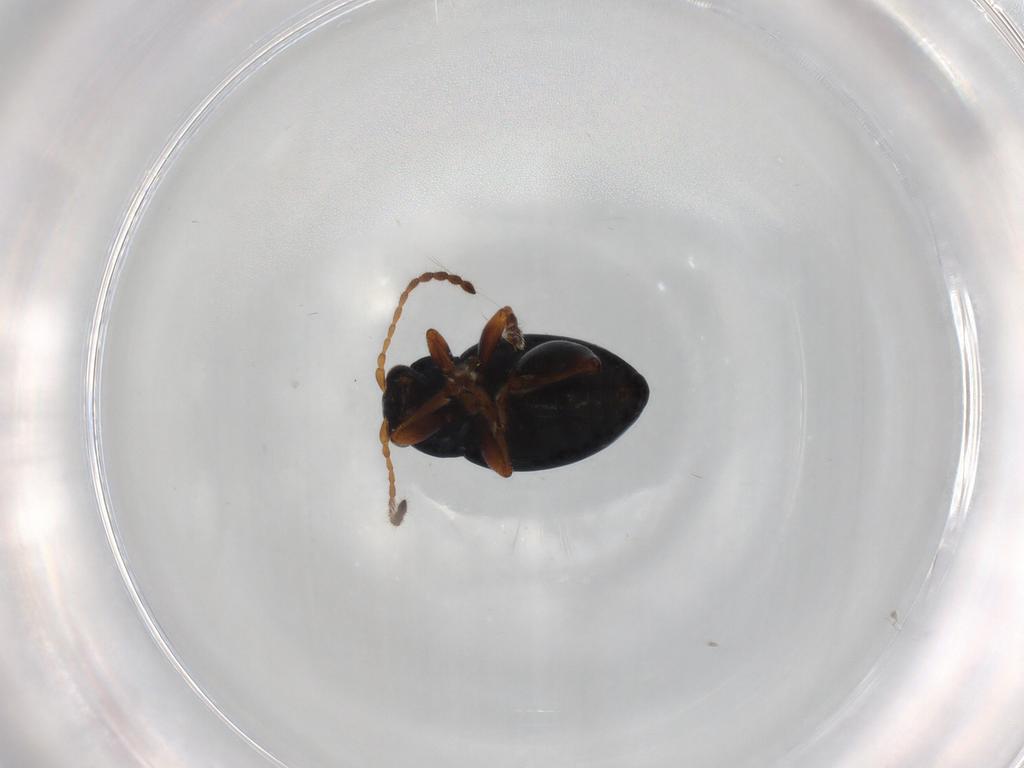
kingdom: Animalia
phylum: Arthropoda
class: Insecta
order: Coleoptera
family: Chrysomelidae
